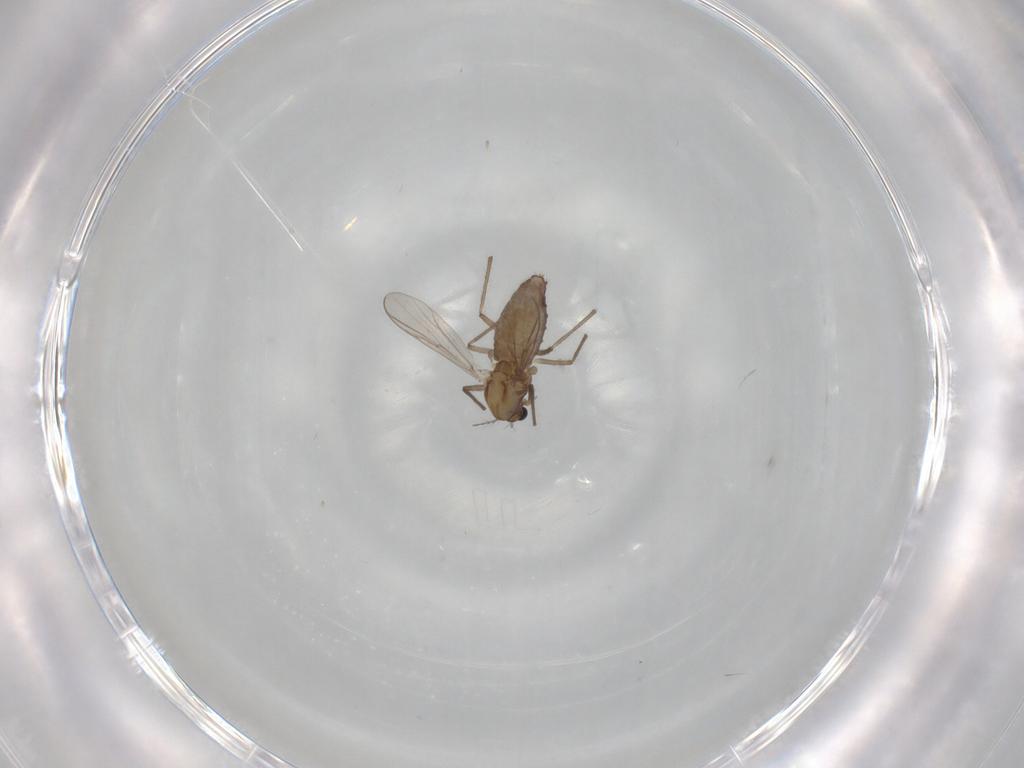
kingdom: Animalia
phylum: Arthropoda
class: Insecta
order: Diptera
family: Chironomidae
